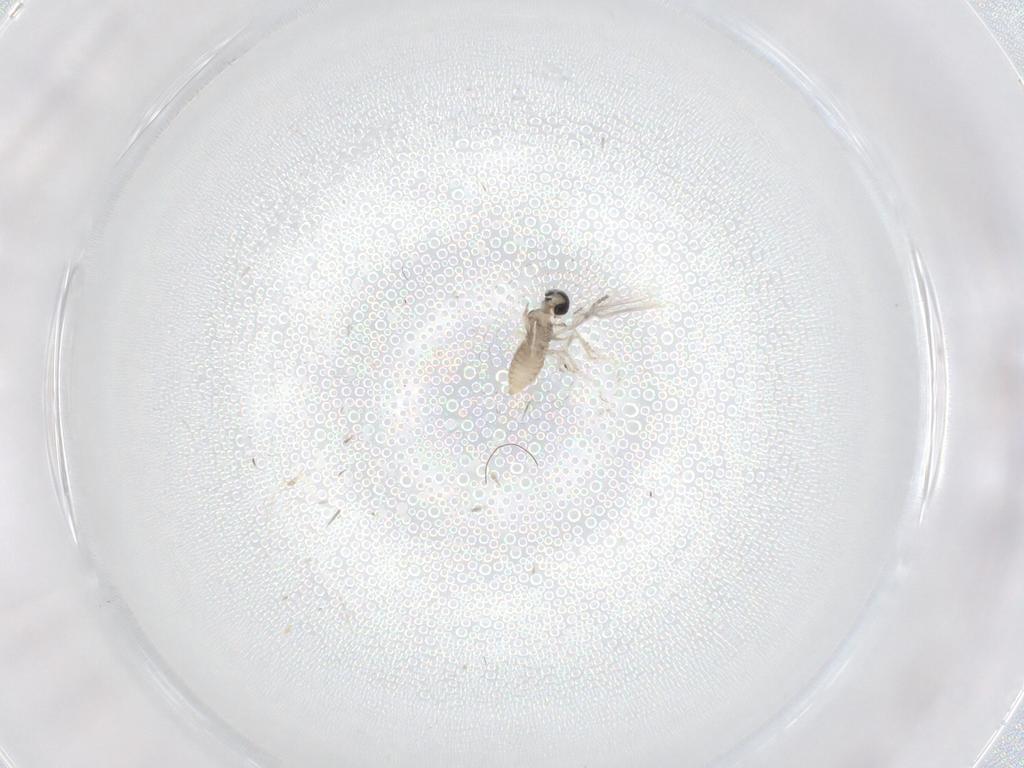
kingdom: Animalia
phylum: Arthropoda
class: Insecta
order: Diptera
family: Cecidomyiidae
